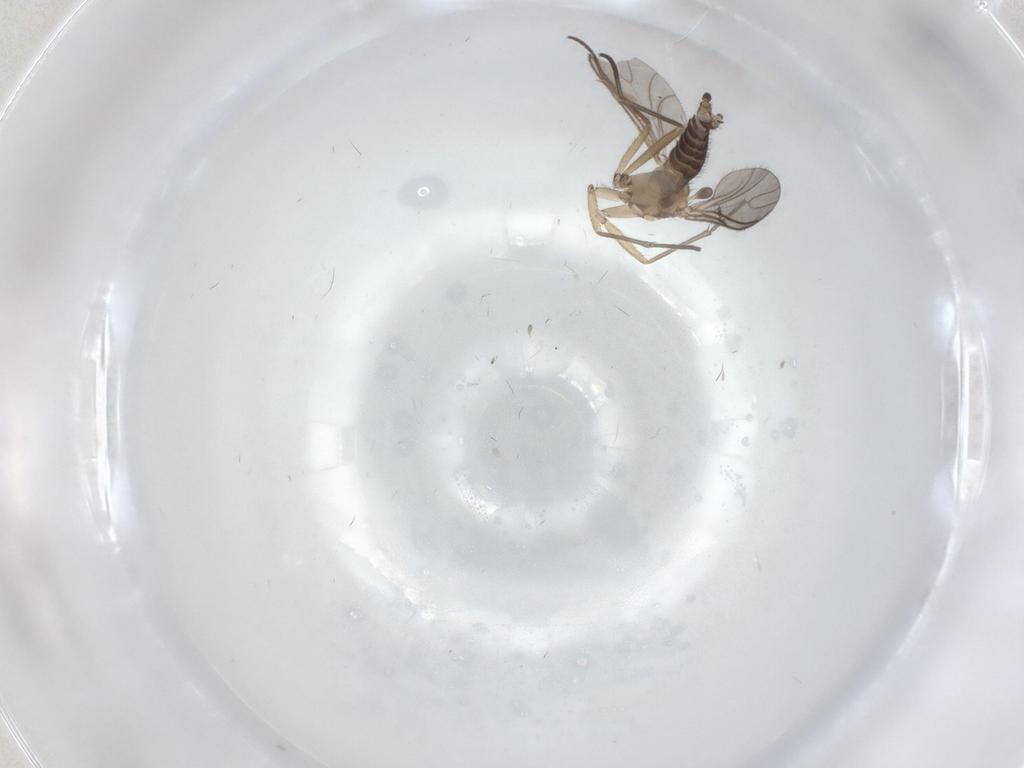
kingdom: Animalia
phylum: Arthropoda
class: Insecta
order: Diptera
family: Sciaridae
